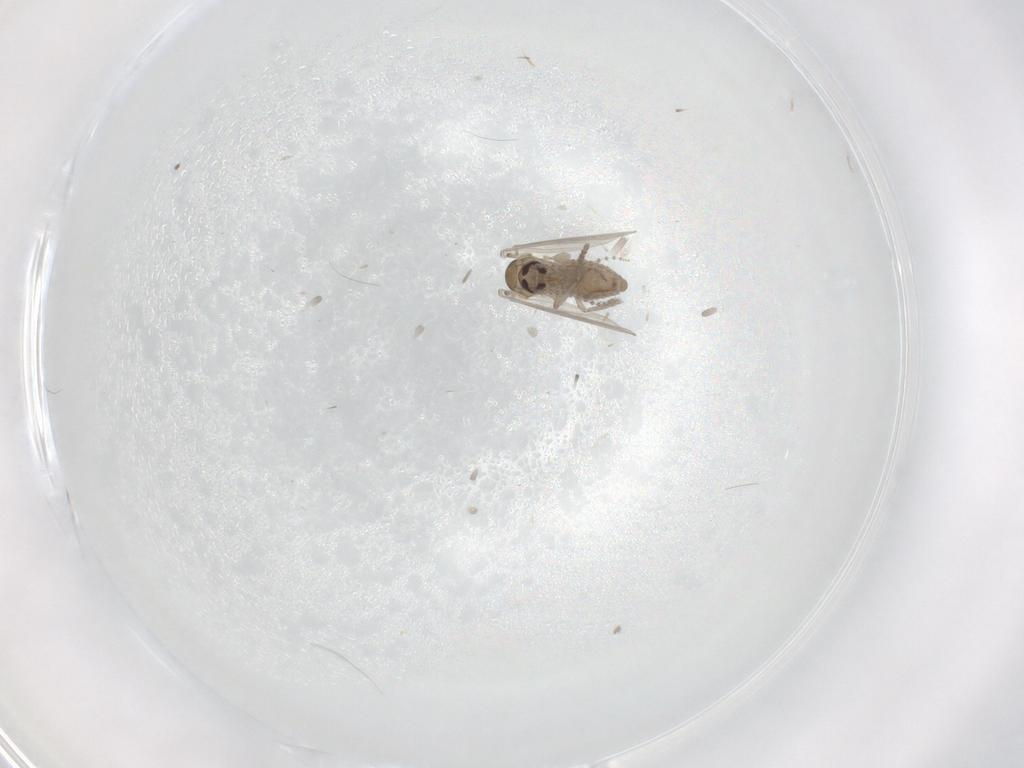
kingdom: Animalia
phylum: Arthropoda
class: Insecta
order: Diptera
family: Psychodidae
